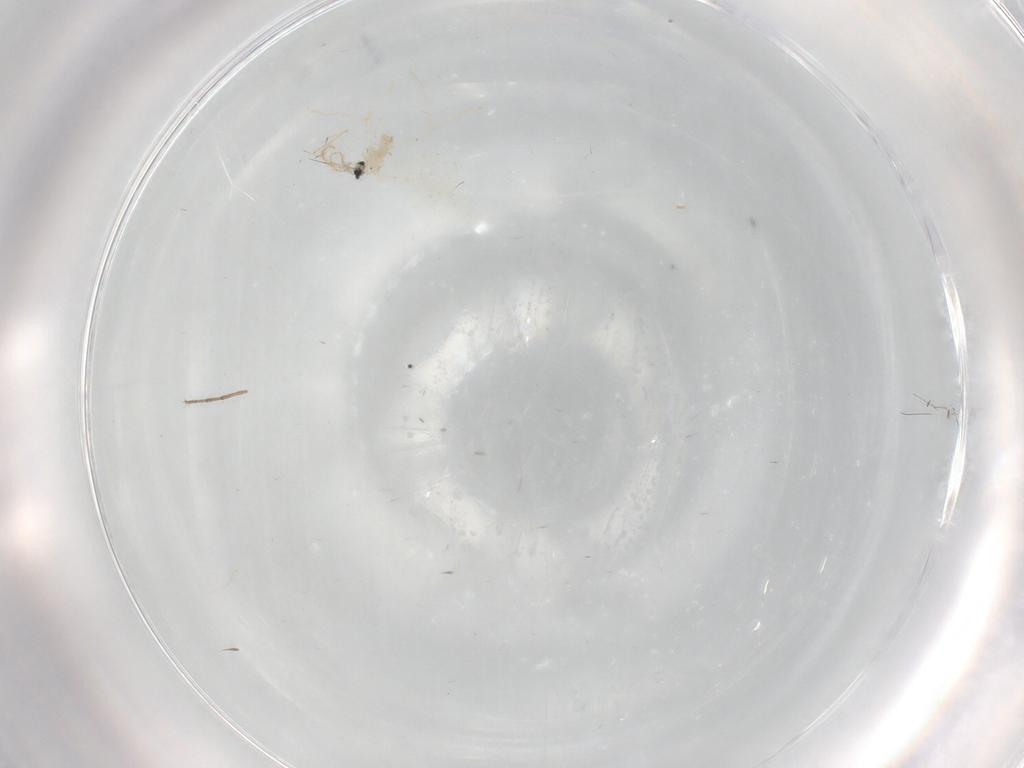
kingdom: Animalia
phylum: Arthropoda
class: Insecta
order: Diptera
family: Cecidomyiidae
